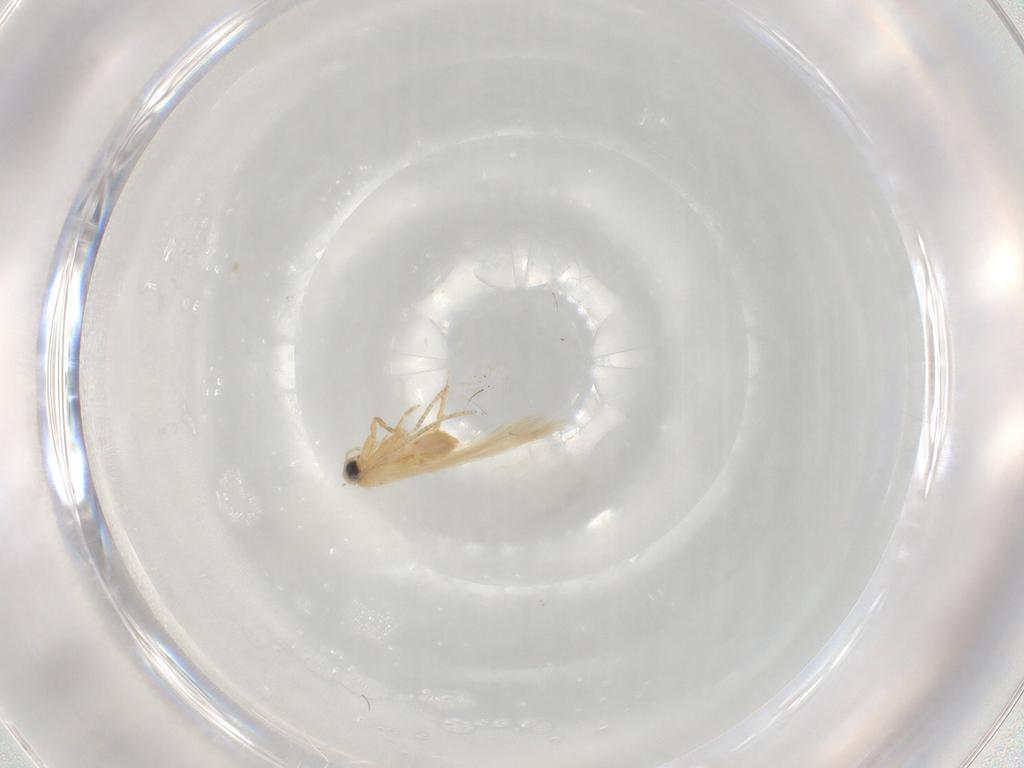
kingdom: Animalia
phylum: Arthropoda
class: Insecta
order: Lepidoptera
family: Nepticulidae
